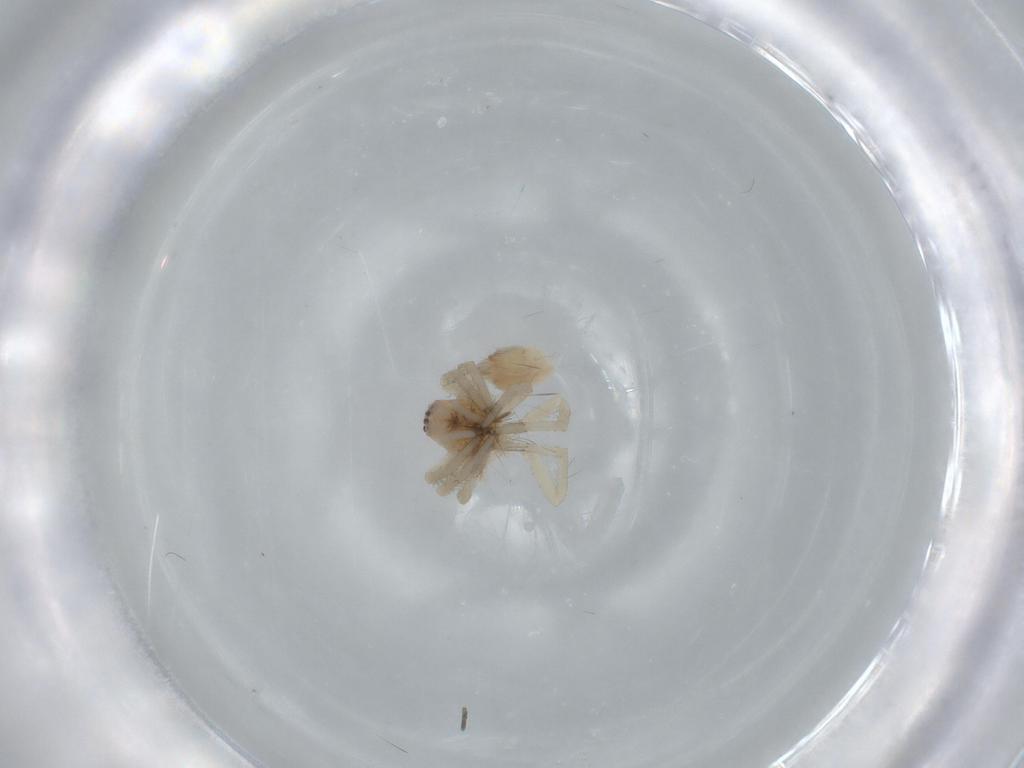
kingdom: Animalia
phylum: Arthropoda
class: Arachnida
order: Araneae
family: Clubionidae
